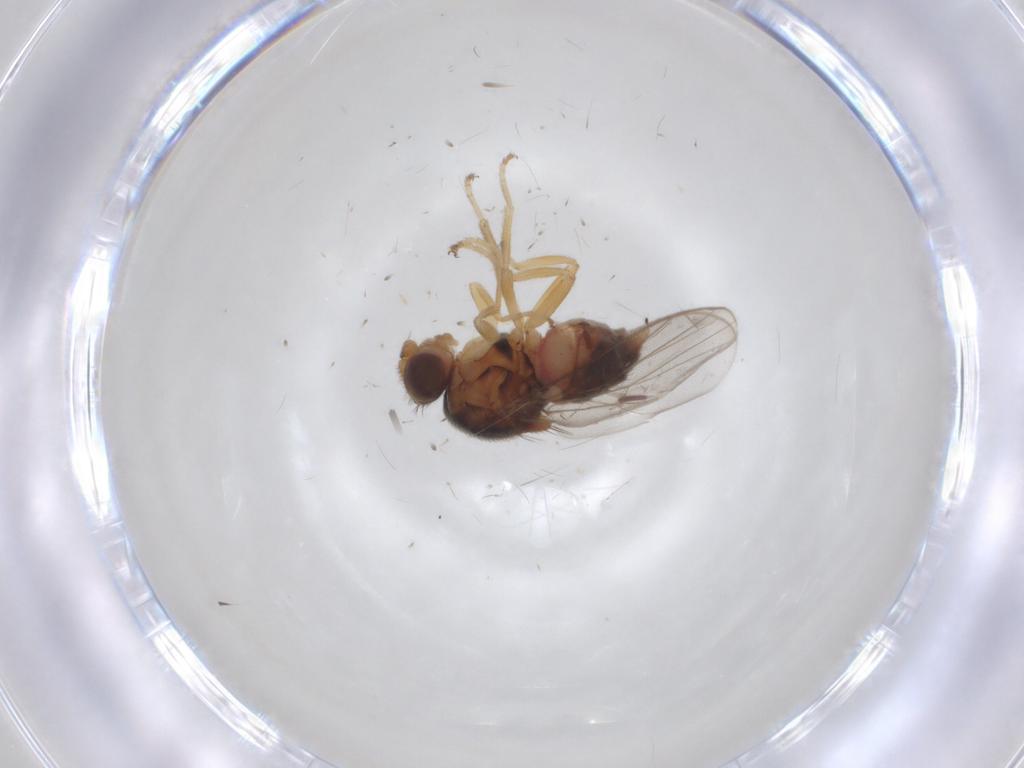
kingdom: Animalia
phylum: Arthropoda
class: Insecta
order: Diptera
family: Chloropidae
